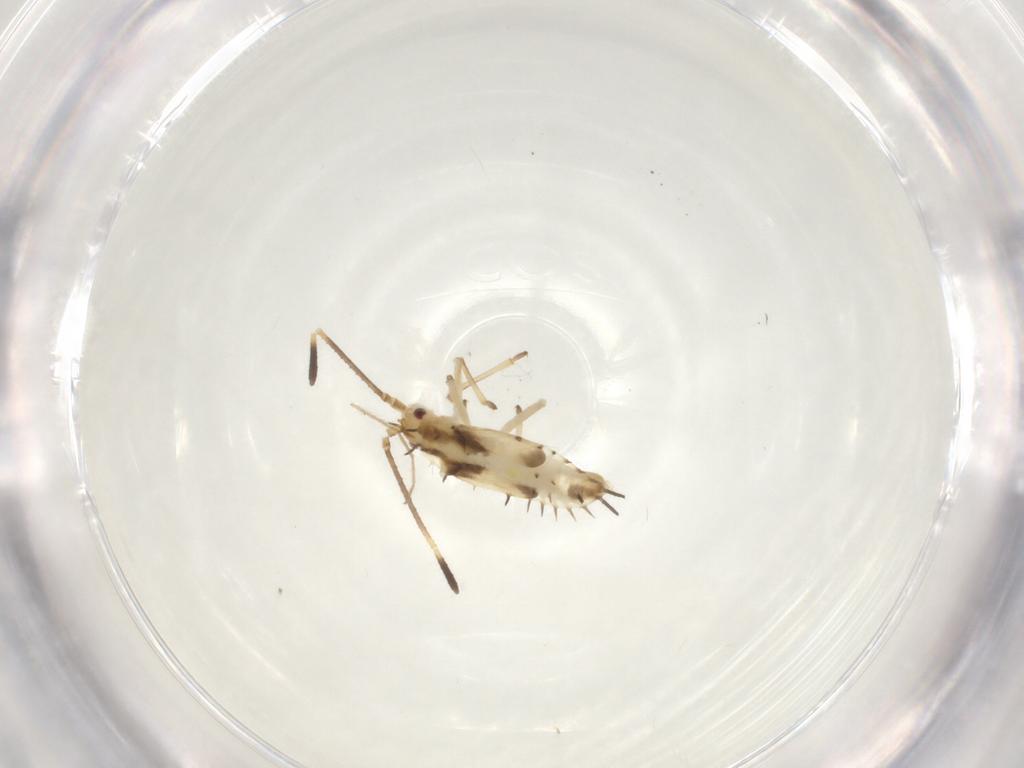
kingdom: Animalia
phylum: Arthropoda
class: Insecta
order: Hemiptera
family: Tingidae
